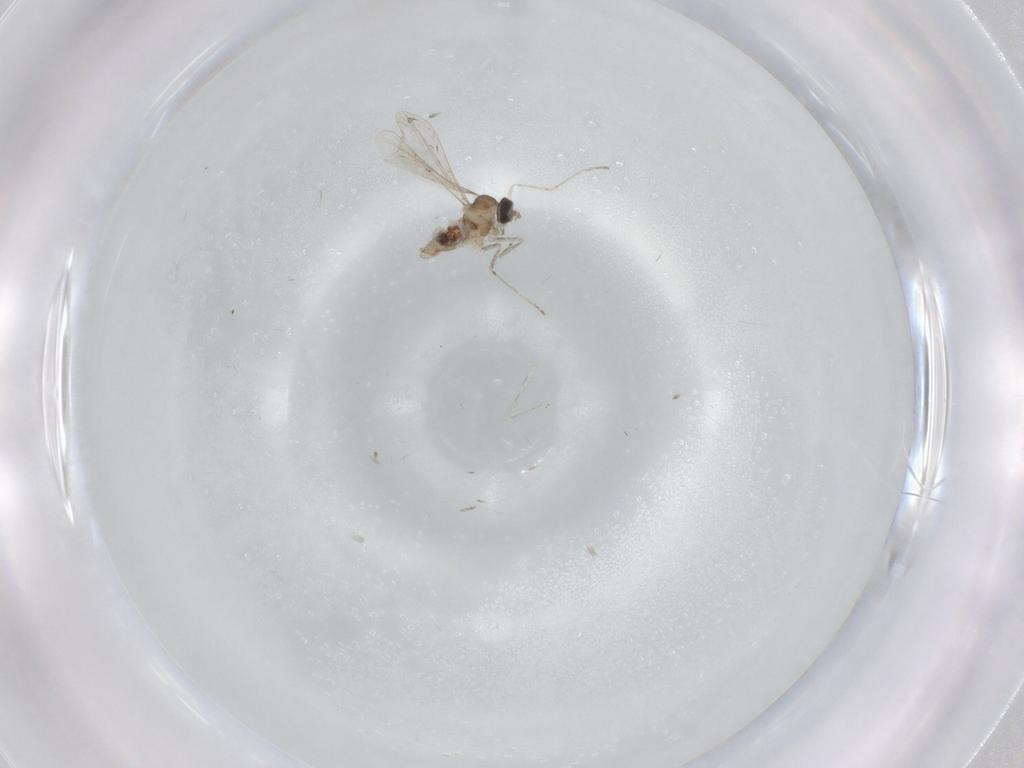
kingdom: Animalia
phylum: Arthropoda
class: Insecta
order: Diptera
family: Cecidomyiidae
